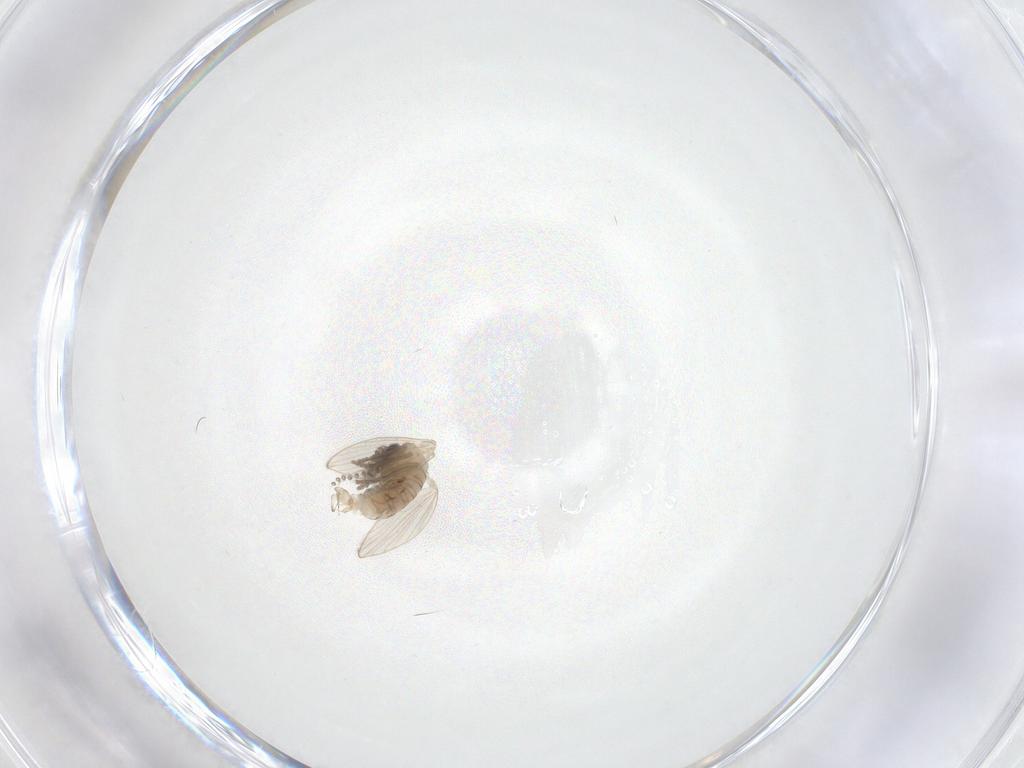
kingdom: Animalia
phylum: Arthropoda
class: Insecta
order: Diptera
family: Psychodidae
